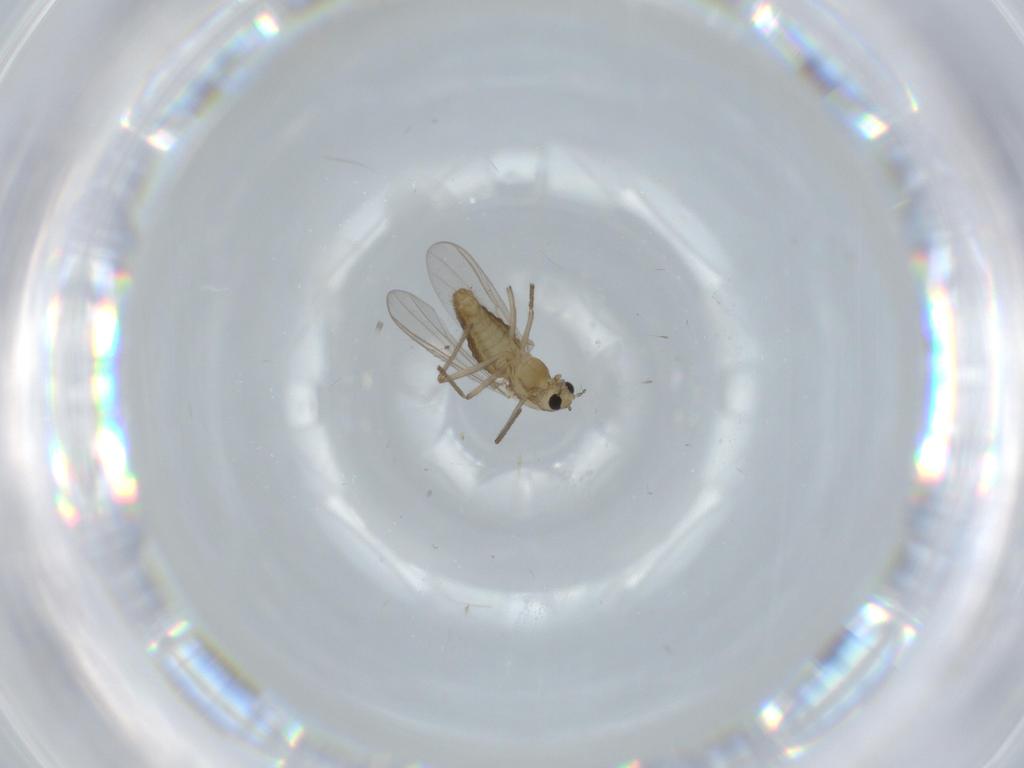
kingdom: Animalia
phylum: Arthropoda
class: Insecta
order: Diptera
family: Chironomidae
